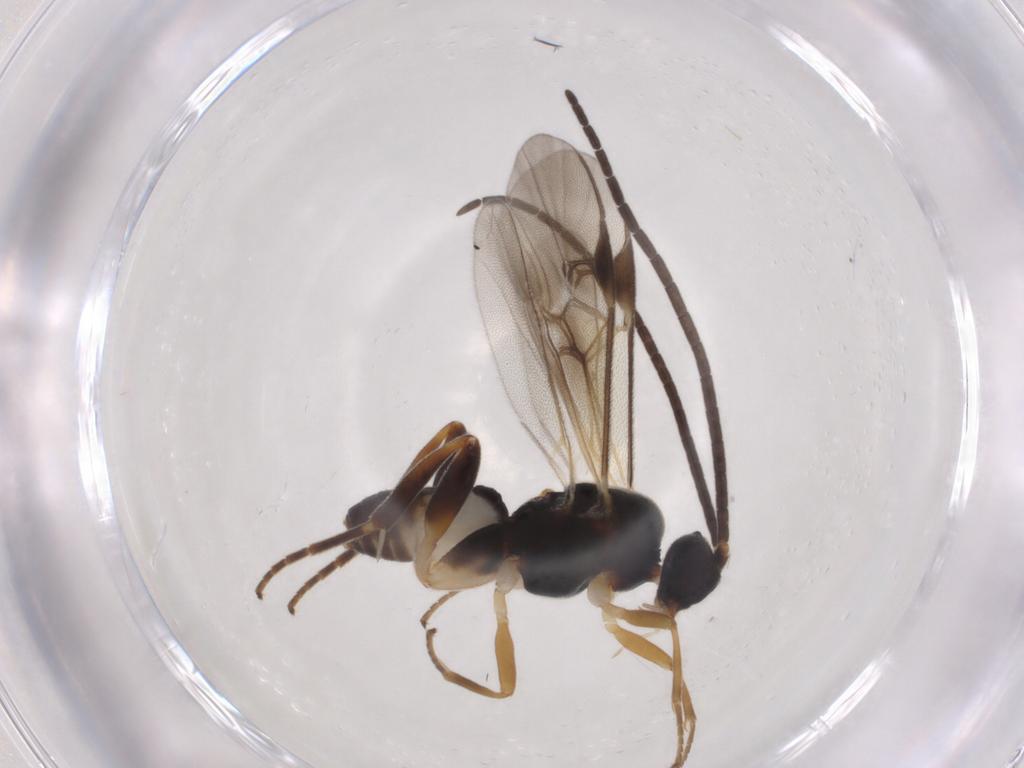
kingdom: Animalia
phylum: Arthropoda
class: Insecta
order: Hymenoptera
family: Braconidae
